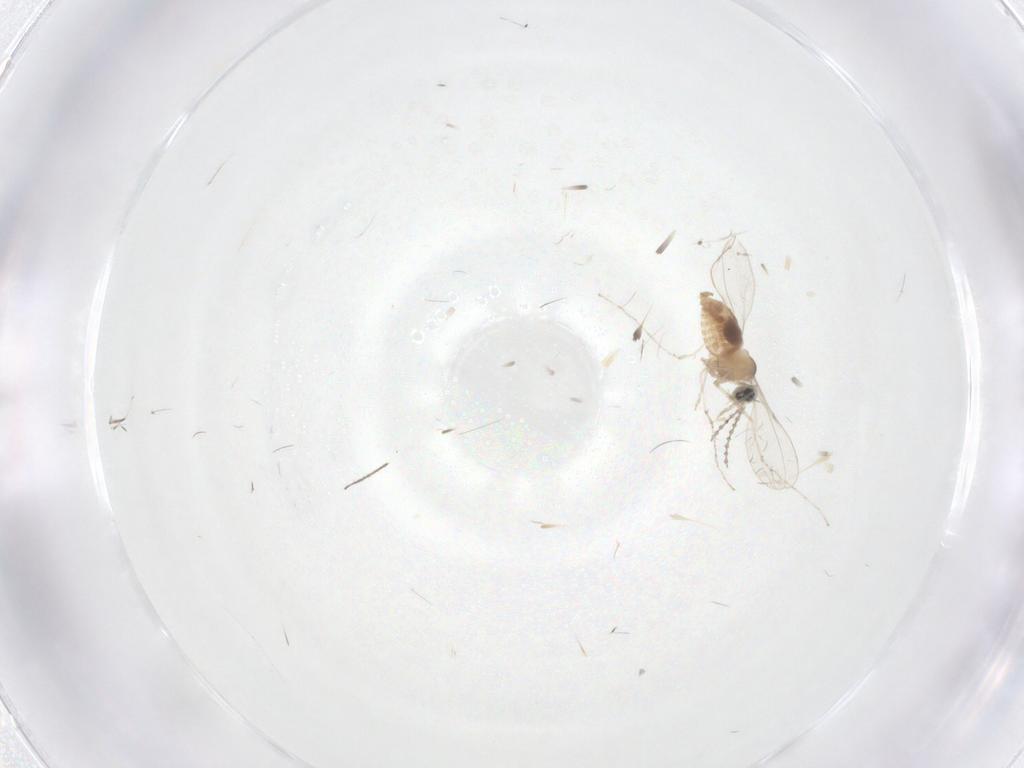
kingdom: Animalia
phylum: Arthropoda
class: Insecta
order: Diptera
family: Cecidomyiidae
